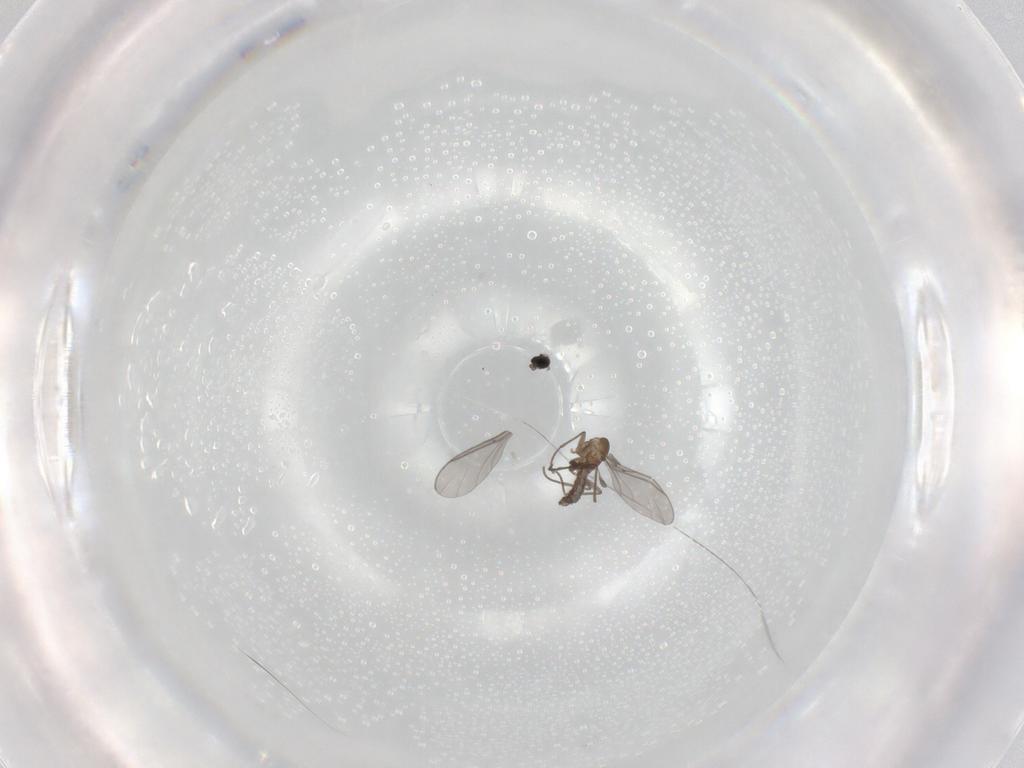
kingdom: Animalia
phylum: Arthropoda
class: Insecta
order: Diptera
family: Sciaridae
